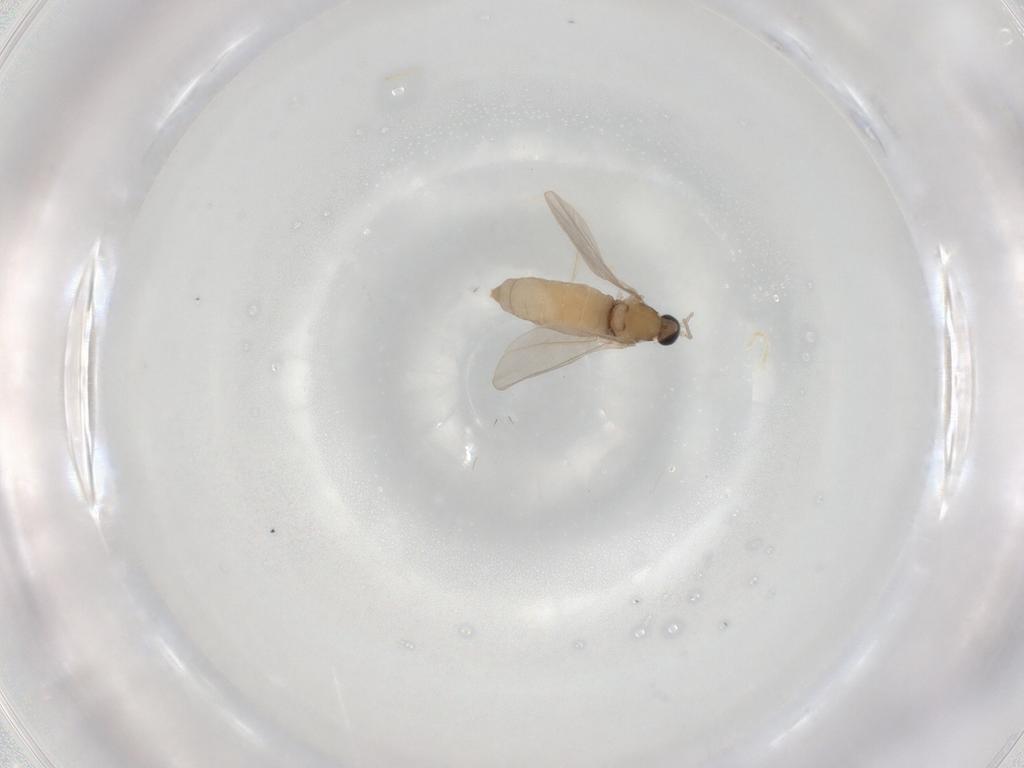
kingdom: Animalia
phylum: Arthropoda
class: Insecta
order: Diptera
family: Cecidomyiidae
